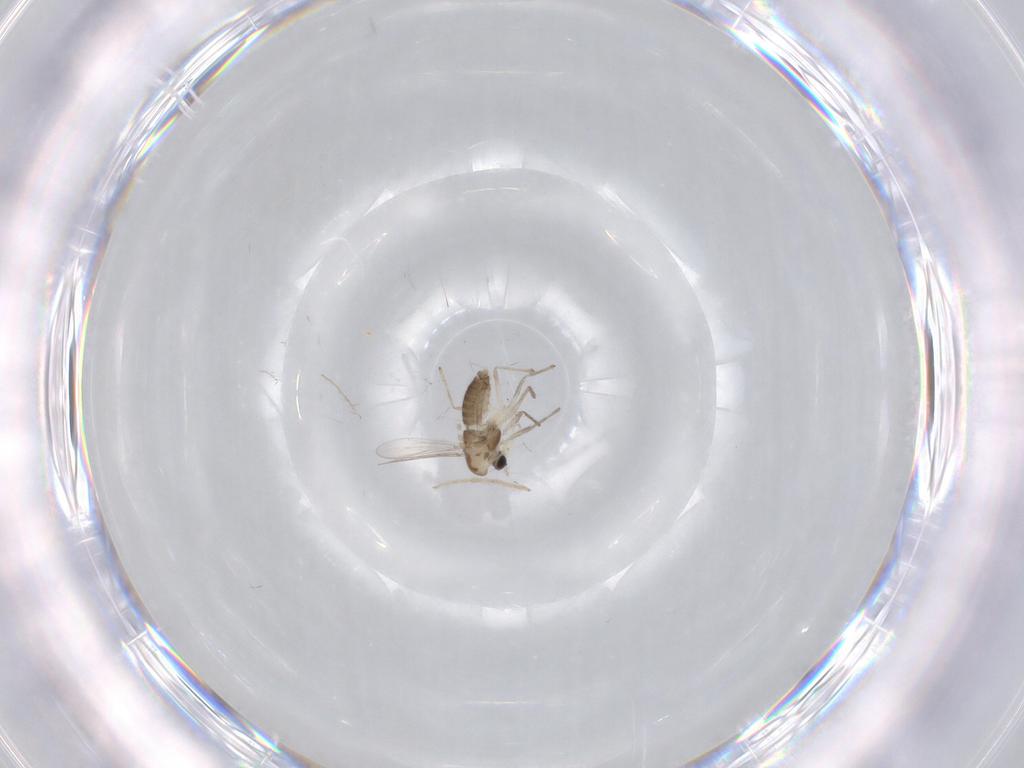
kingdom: Animalia
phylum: Arthropoda
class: Insecta
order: Diptera
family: Chironomidae
